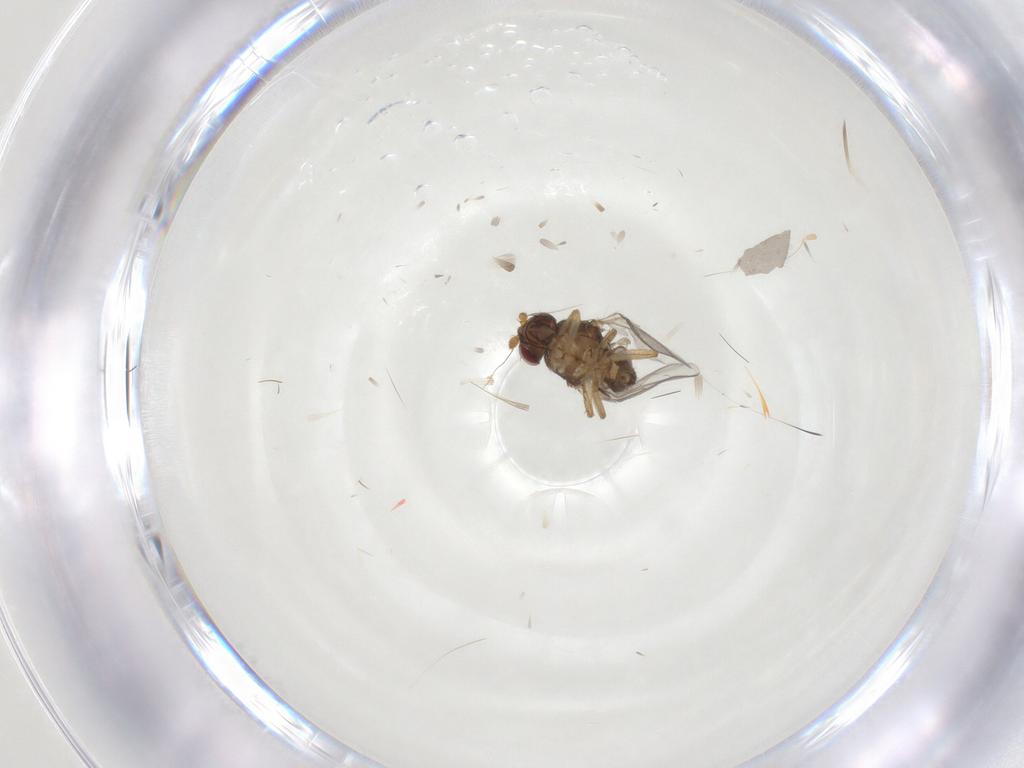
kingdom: Animalia
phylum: Arthropoda
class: Insecta
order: Diptera
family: Sphaeroceridae
